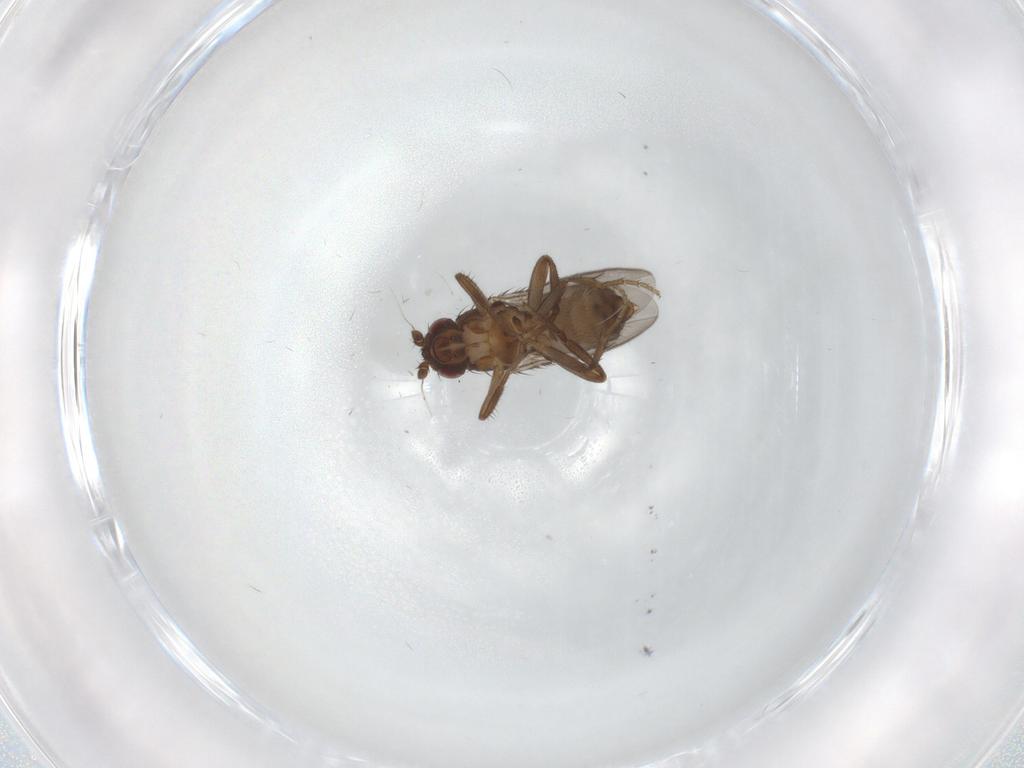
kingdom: Animalia
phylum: Arthropoda
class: Insecta
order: Diptera
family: Sphaeroceridae
